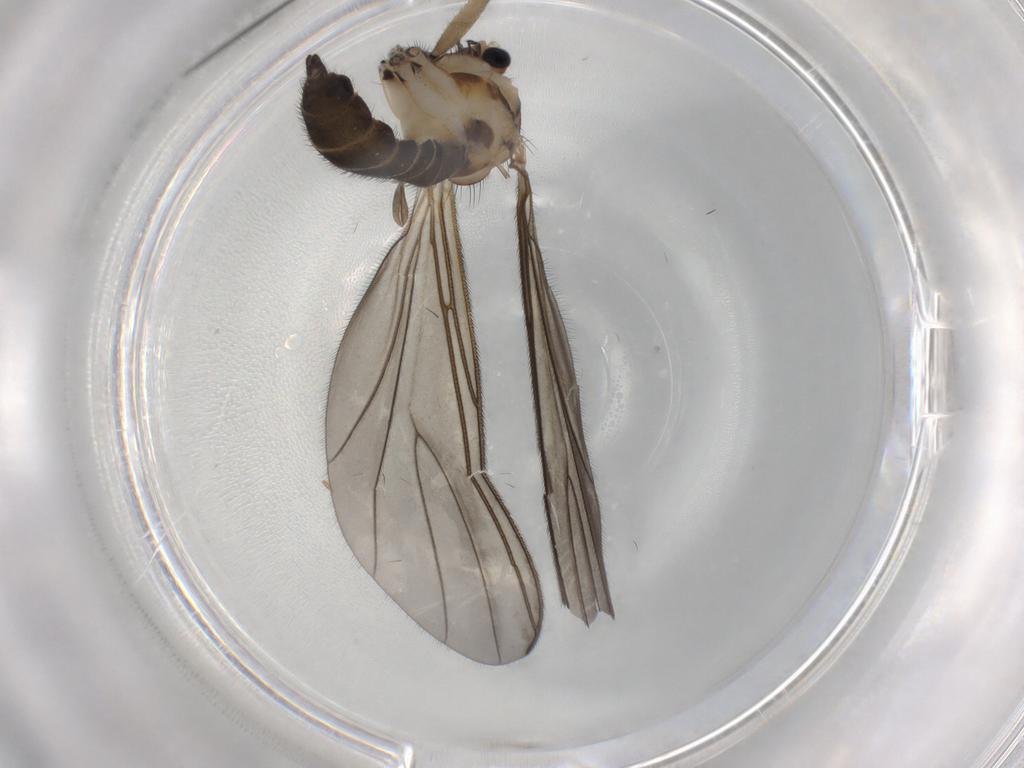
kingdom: Animalia
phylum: Arthropoda
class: Insecta
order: Diptera
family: Sciaridae
